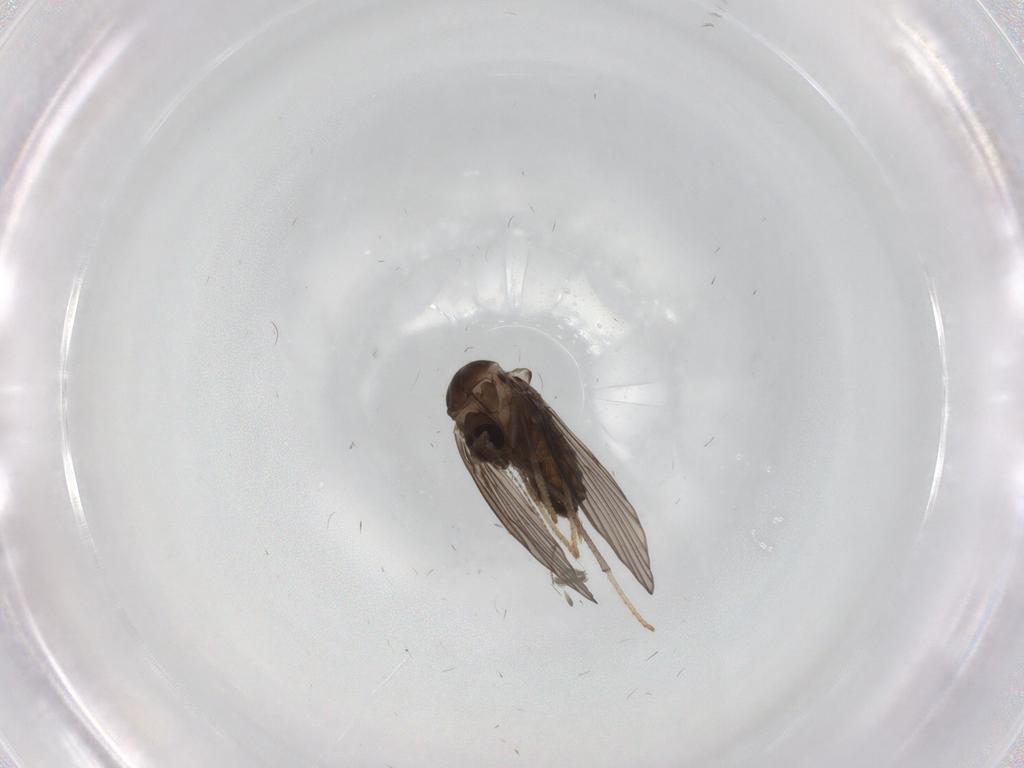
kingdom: Animalia
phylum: Arthropoda
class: Insecta
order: Diptera
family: Psychodidae
